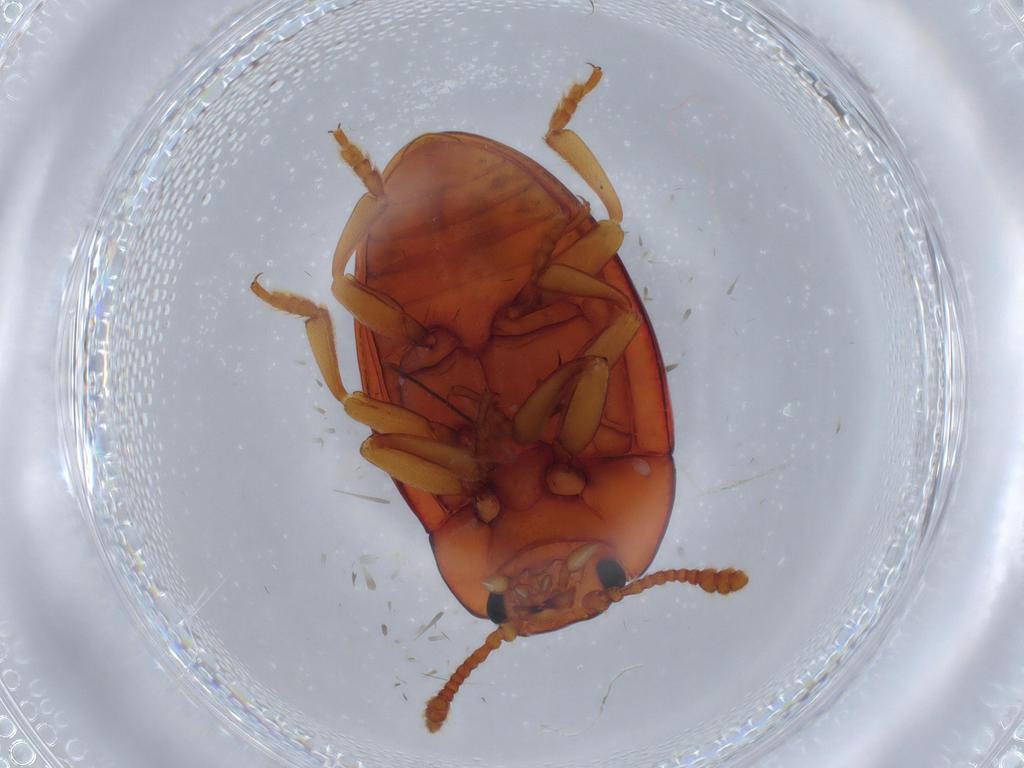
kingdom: Animalia
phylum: Arthropoda
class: Insecta
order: Coleoptera
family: Erotylidae
